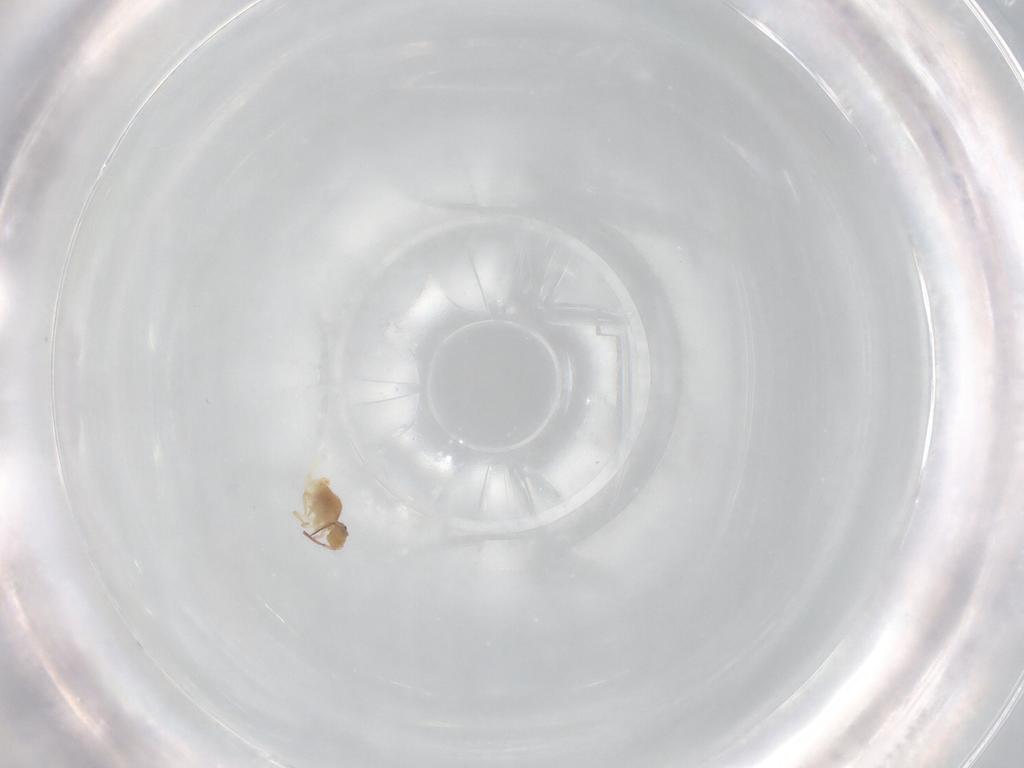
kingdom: Animalia
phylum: Arthropoda
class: Collembola
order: Symphypleona
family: Bourletiellidae
